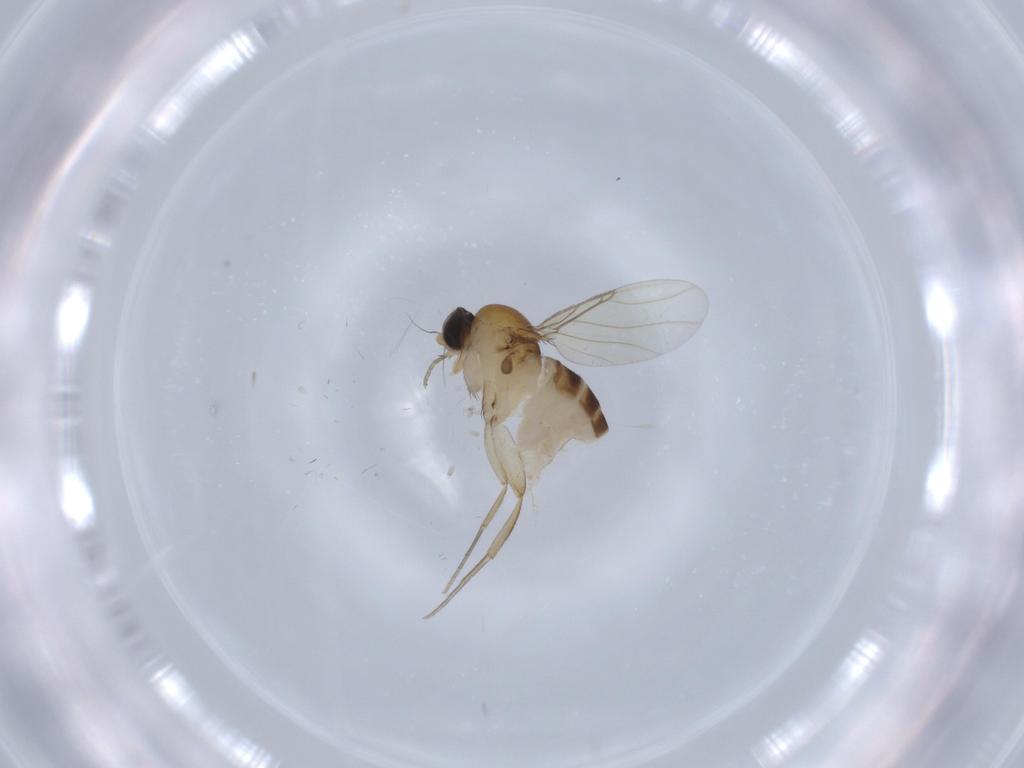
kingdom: Animalia
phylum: Arthropoda
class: Insecta
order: Diptera
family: Phoridae
